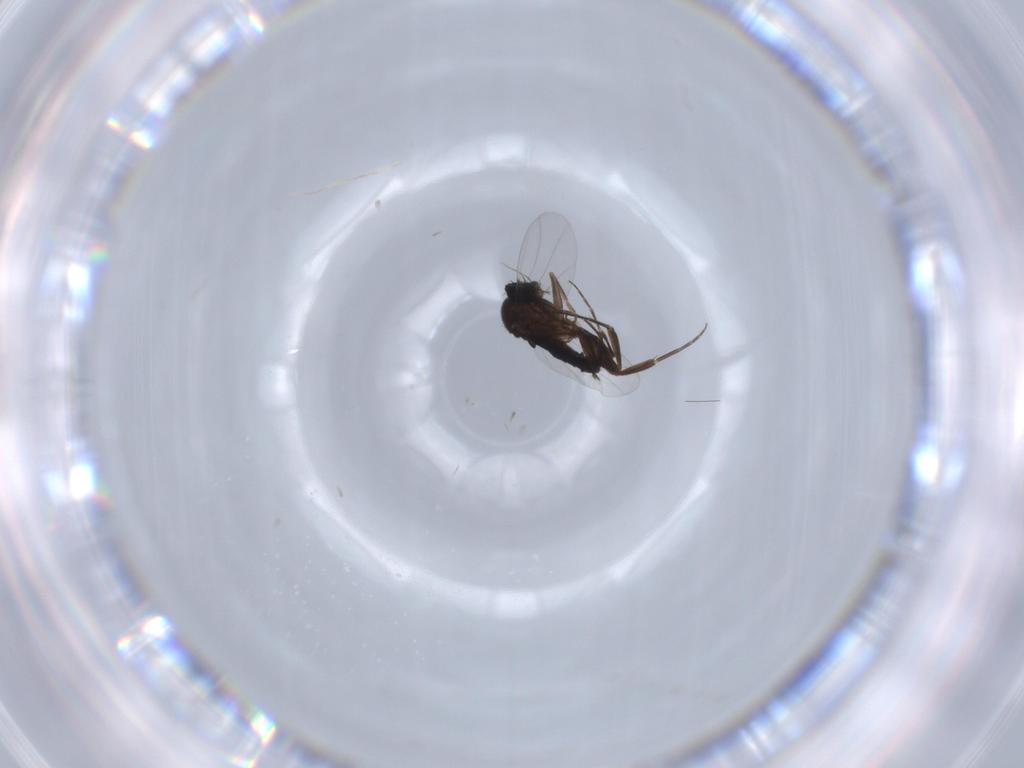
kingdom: Animalia
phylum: Arthropoda
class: Insecta
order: Diptera
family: Phoridae
